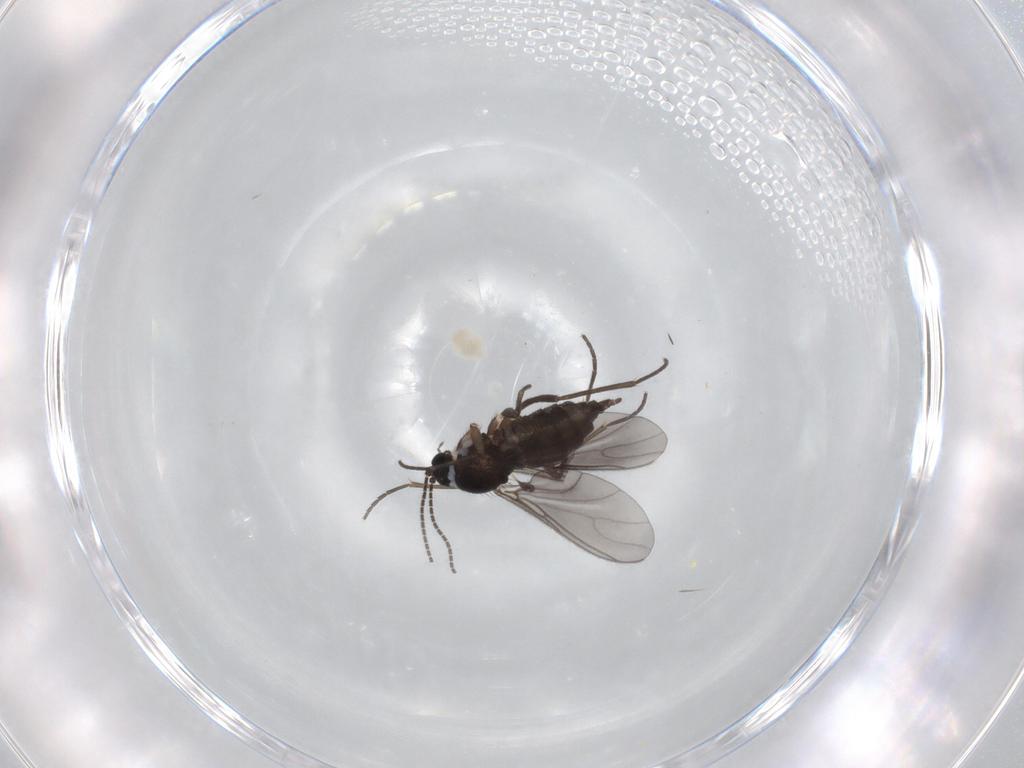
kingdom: Animalia
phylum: Arthropoda
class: Insecta
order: Diptera
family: Sciaridae
